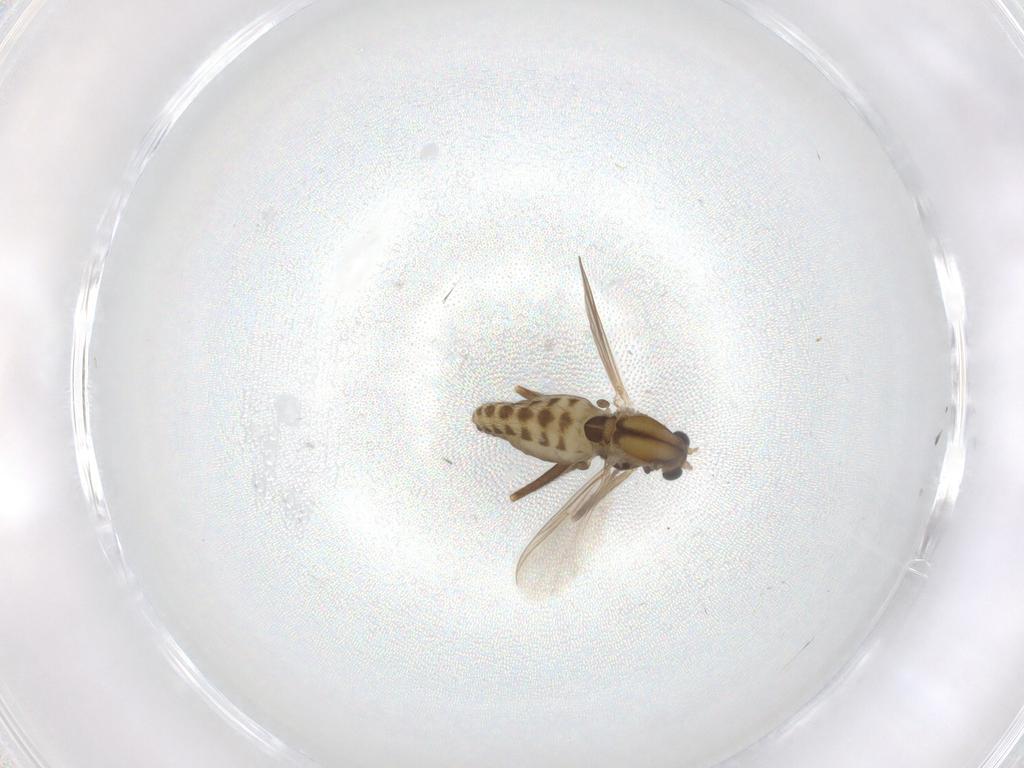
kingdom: Animalia
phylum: Arthropoda
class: Insecta
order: Diptera
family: Chironomidae
